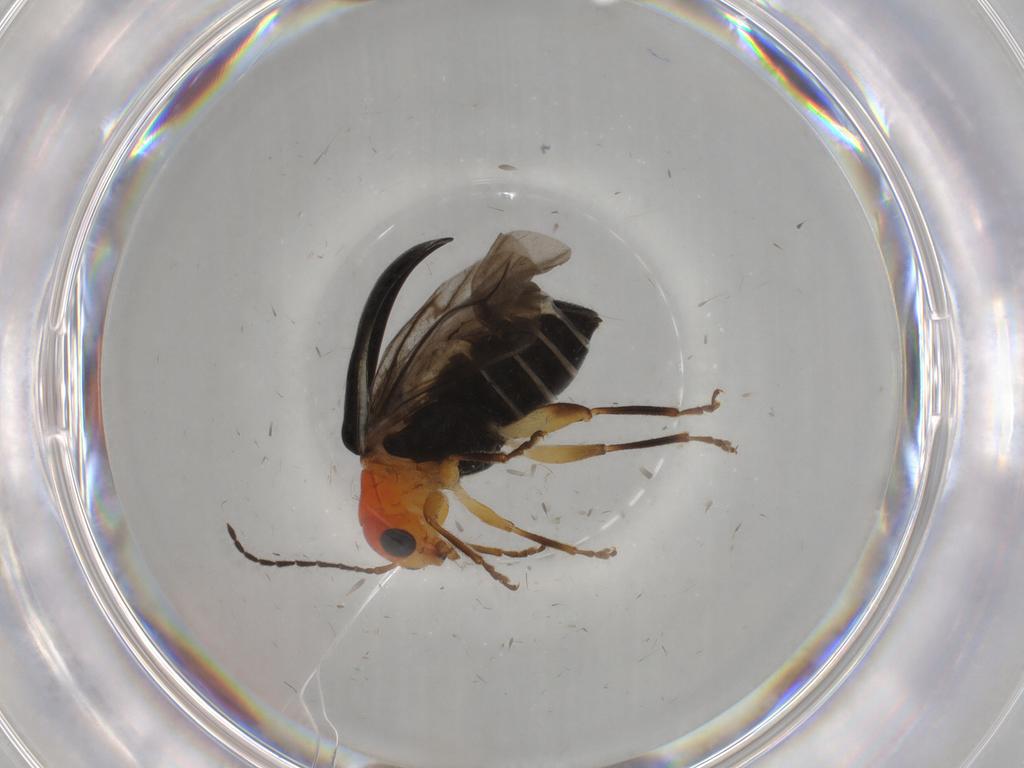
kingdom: Animalia
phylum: Arthropoda
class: Insecta
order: Coleoptera
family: Chrysomelidae
